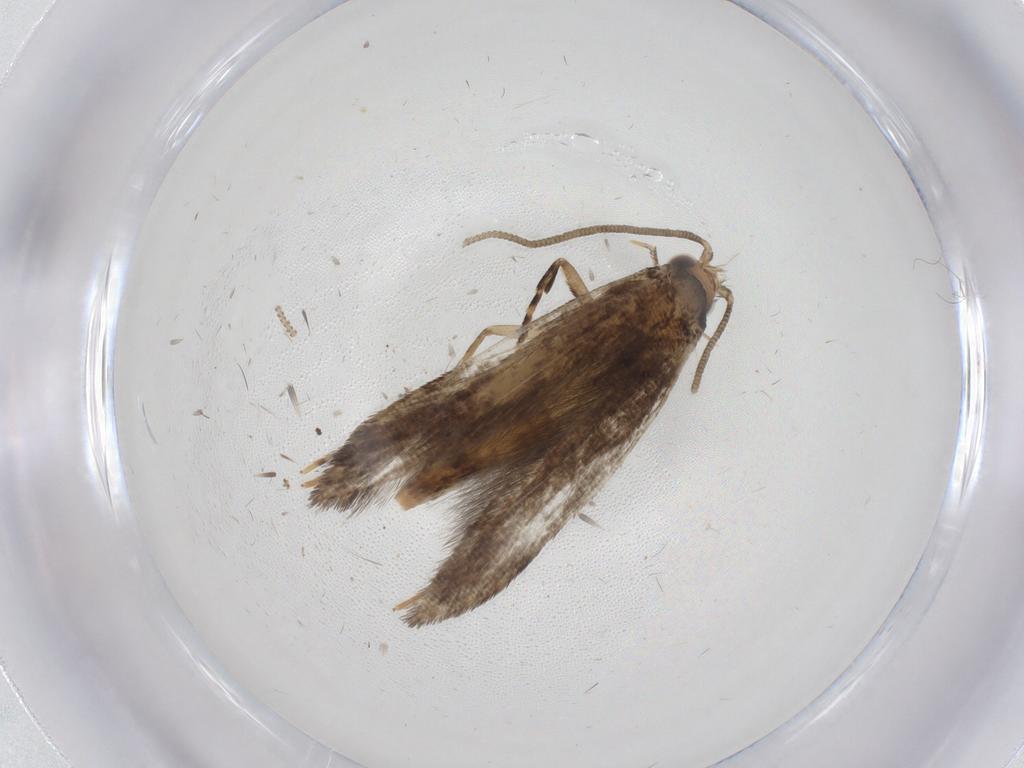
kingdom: Animalia
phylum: Arthropoda
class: Insecta
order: Lepidoptera
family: Tineidae
